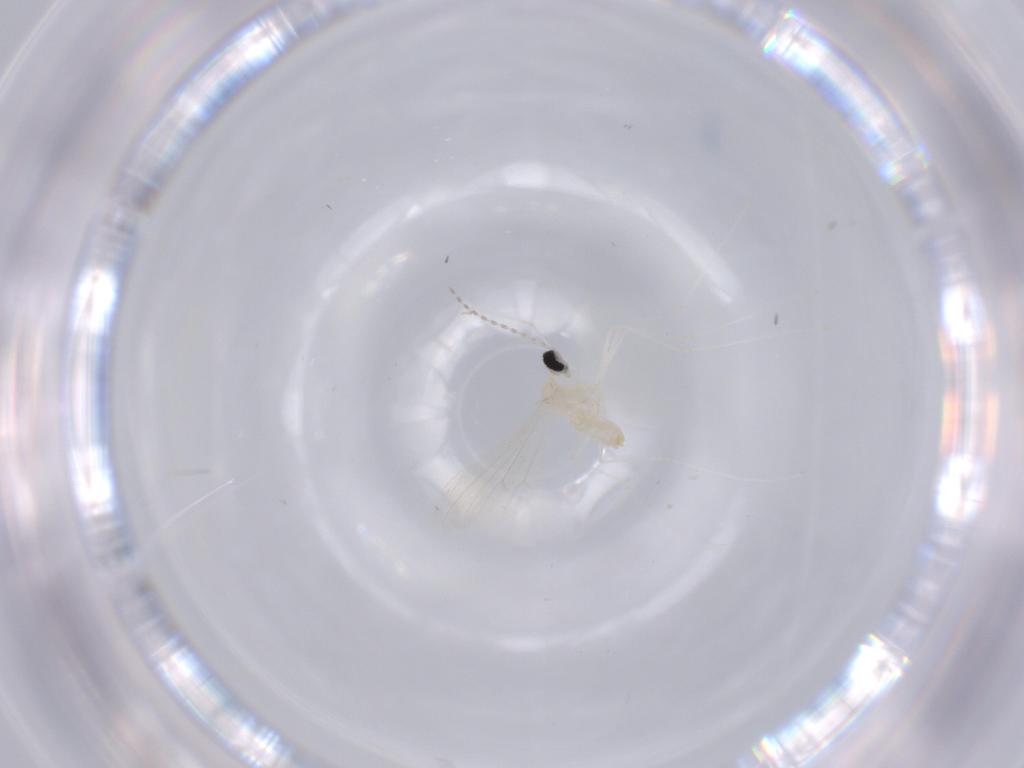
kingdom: Animalia
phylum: Arthropoda
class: Insecta
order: Diptera
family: Cecidomyiidae
